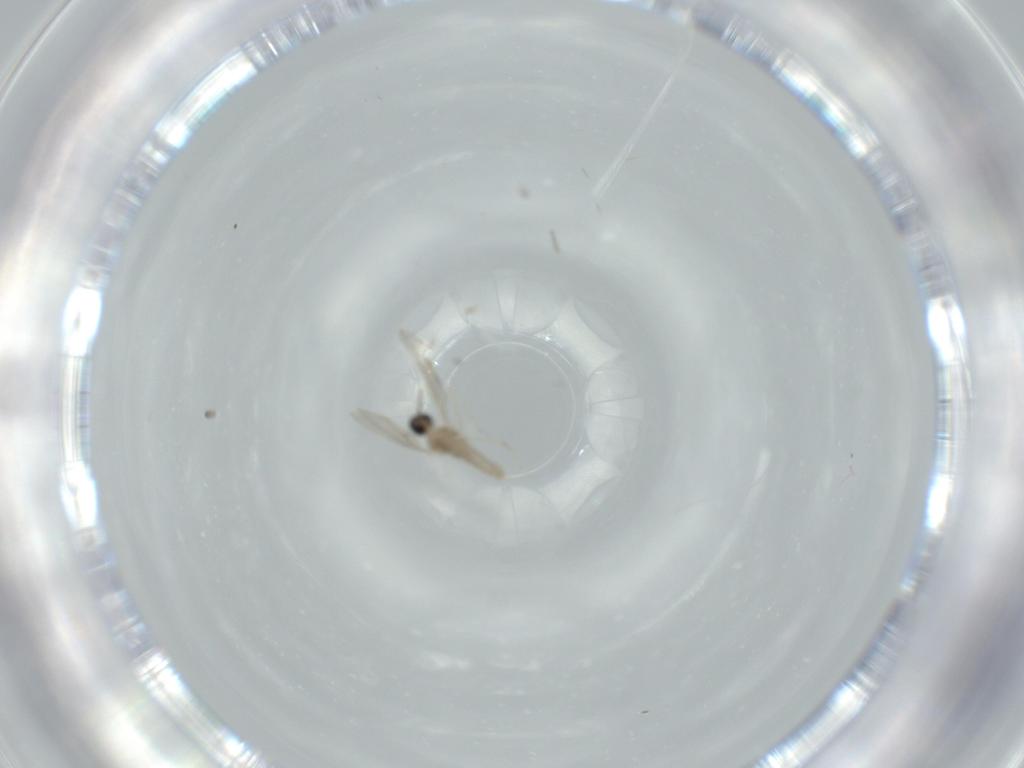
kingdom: Animalia
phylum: Arthropoda
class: Insecta
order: Diptera
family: Cecidomyiidae
